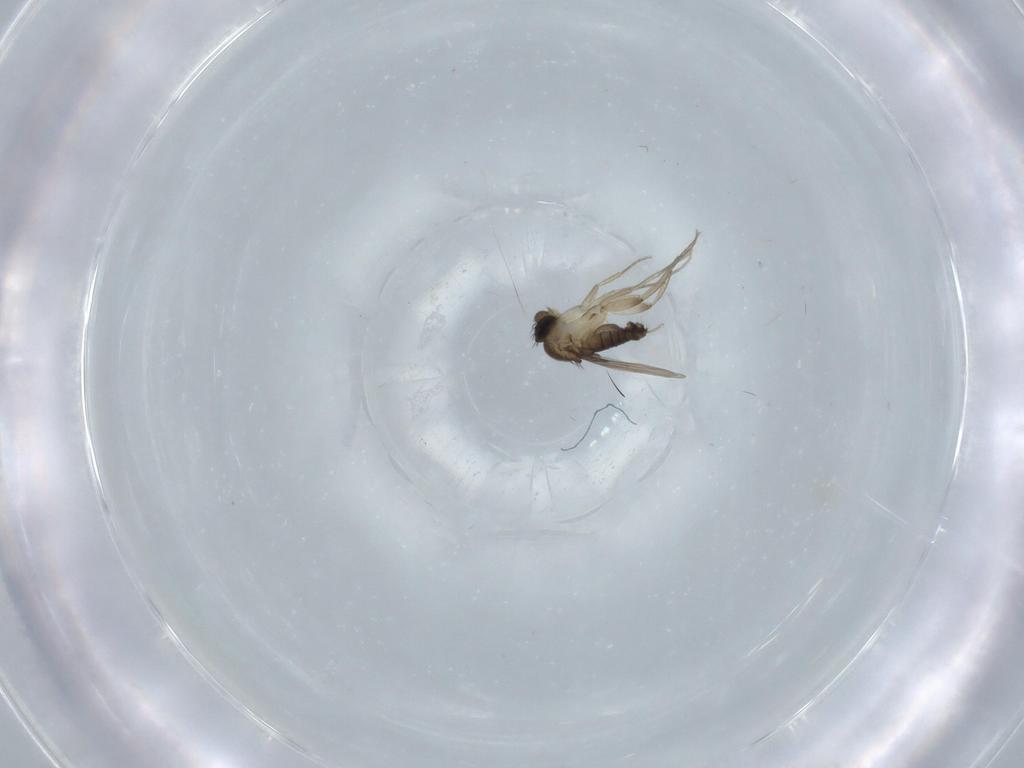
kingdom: Animalia
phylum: Arthropoda
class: Insecta
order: Diptera
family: Phoridae
